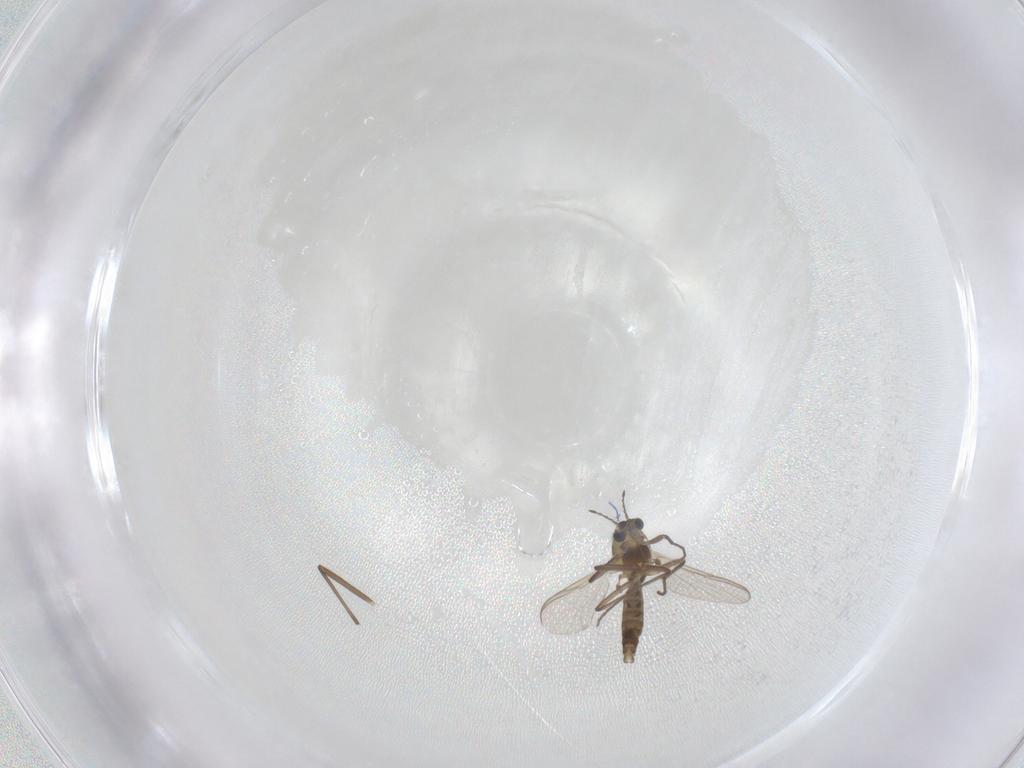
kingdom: Animalia
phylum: Arthropoda
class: Insecta
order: Diptera
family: Chironomidae
